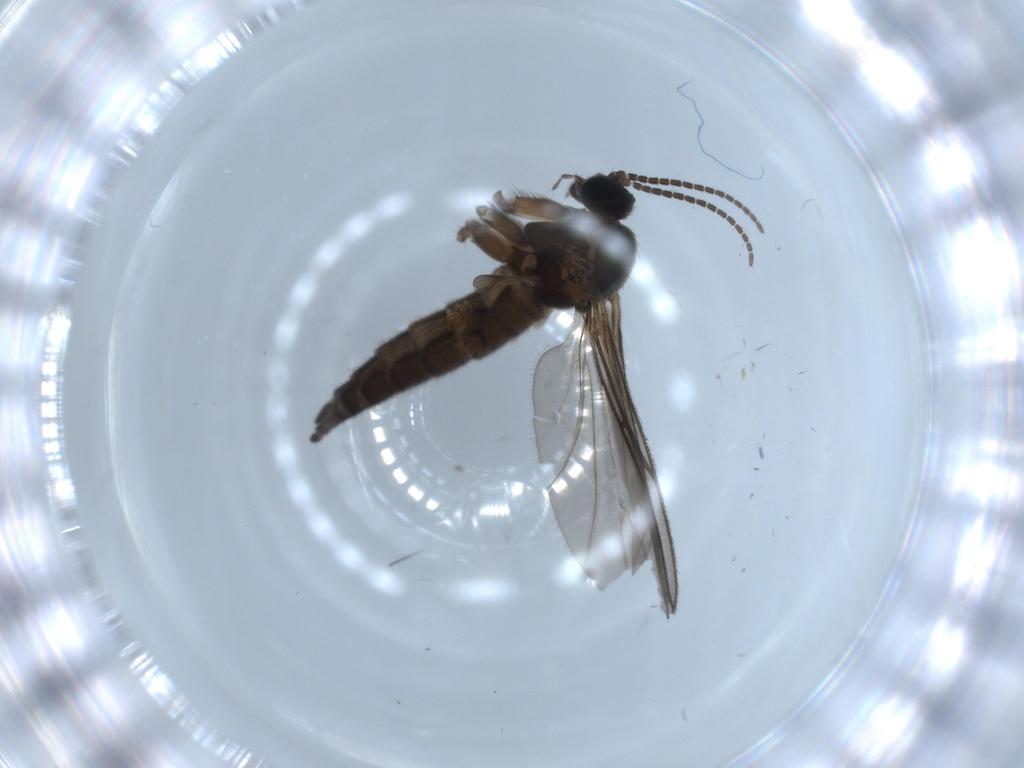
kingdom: Animalia
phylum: Arthropoda
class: Insecta
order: Diptera
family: Sciaridae
